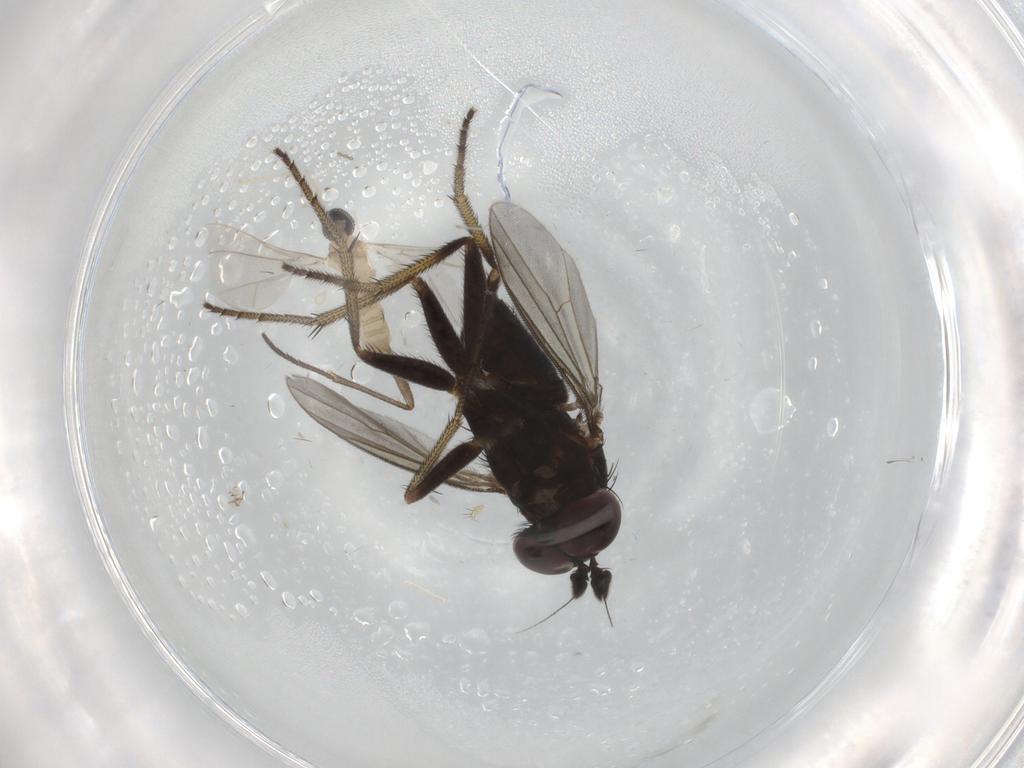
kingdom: Animalia
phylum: Arthropoda
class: Insecta
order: Diptera
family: Dolichopodidae
